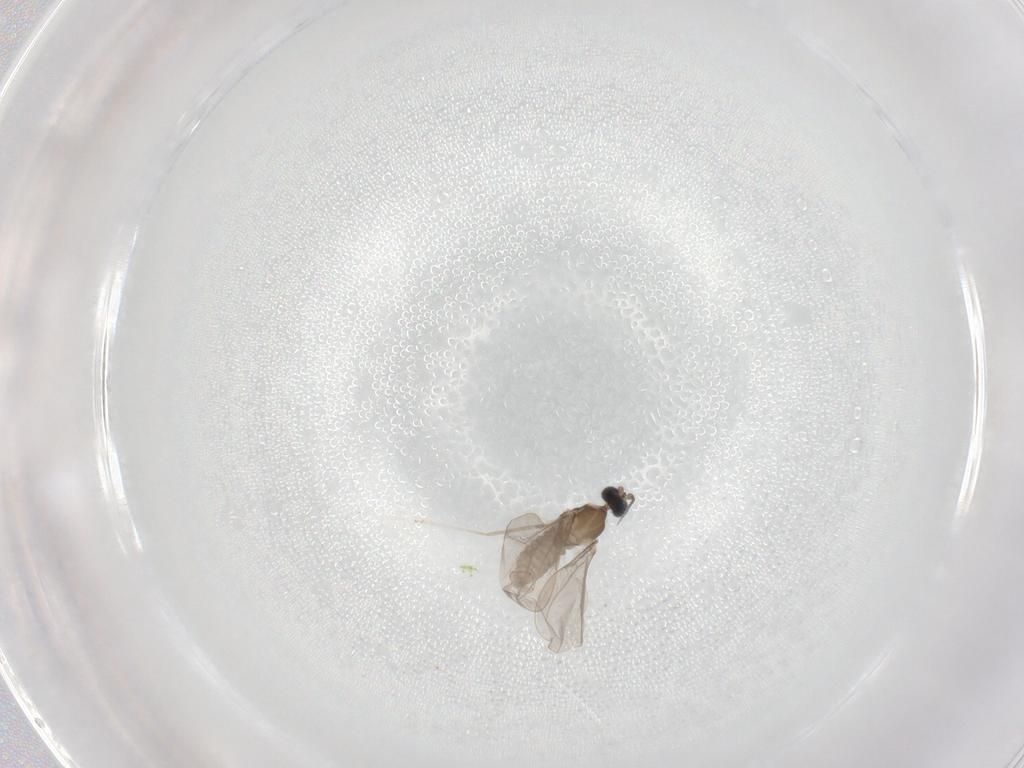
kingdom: Animalia
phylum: Arthropoda
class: Insecta
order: Diptera
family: Cecidomyiidae
